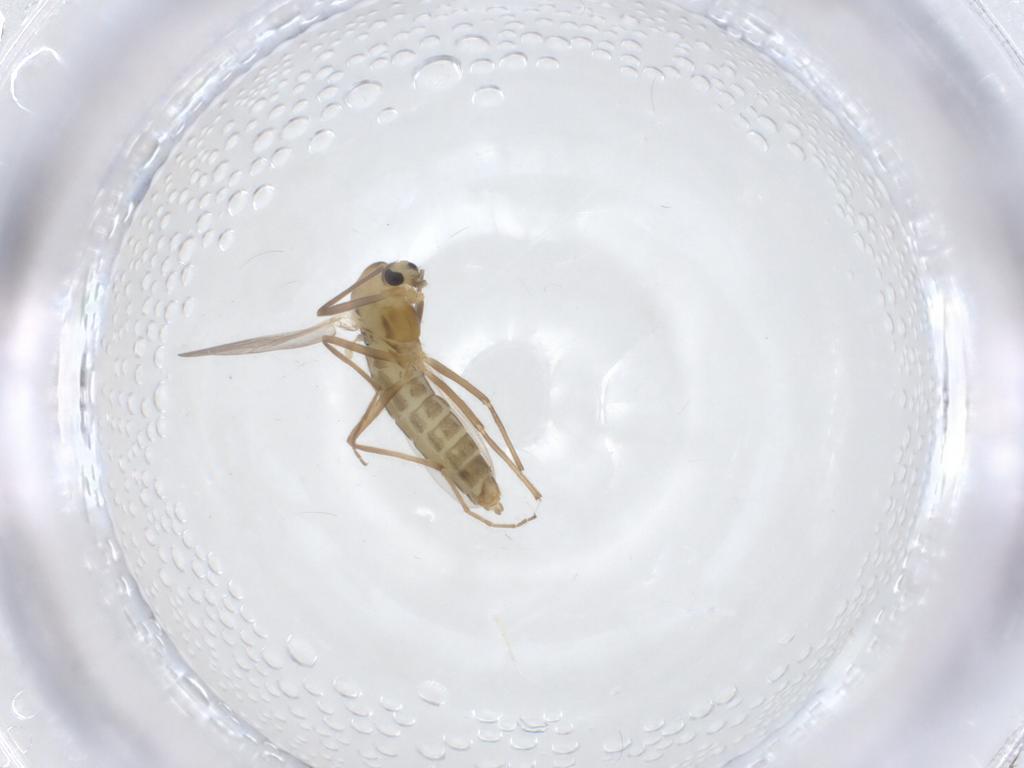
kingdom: Animalia
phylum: Arthropoda
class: Insecta
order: Diptera
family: Chironomidae
